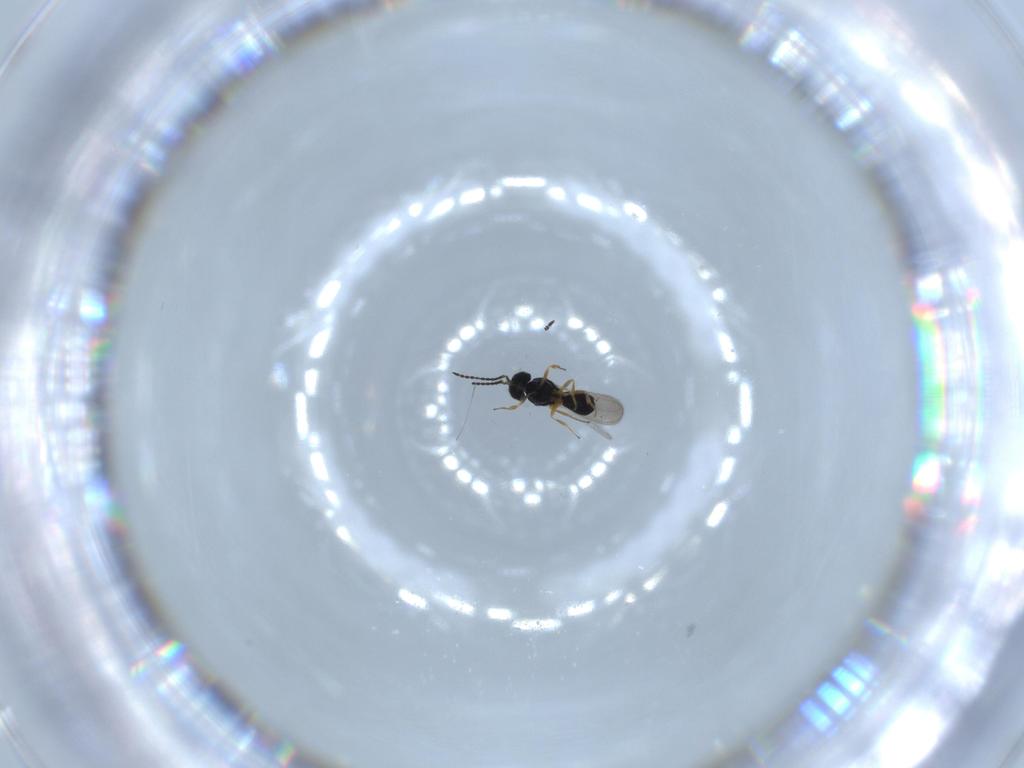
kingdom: Animalia
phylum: Arthropoda
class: Insecta
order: Hymenoptera
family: Scelionidae
